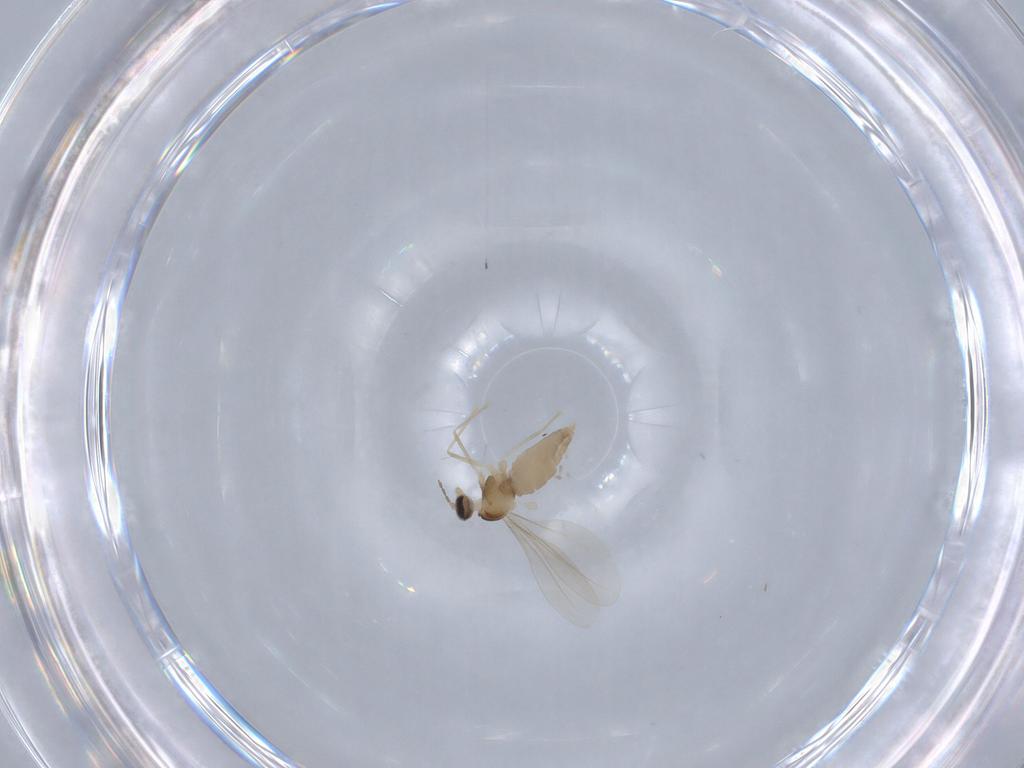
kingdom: Animalia
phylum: Arthropoda
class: Insecta
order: Diptera
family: Cecidomyiidae
